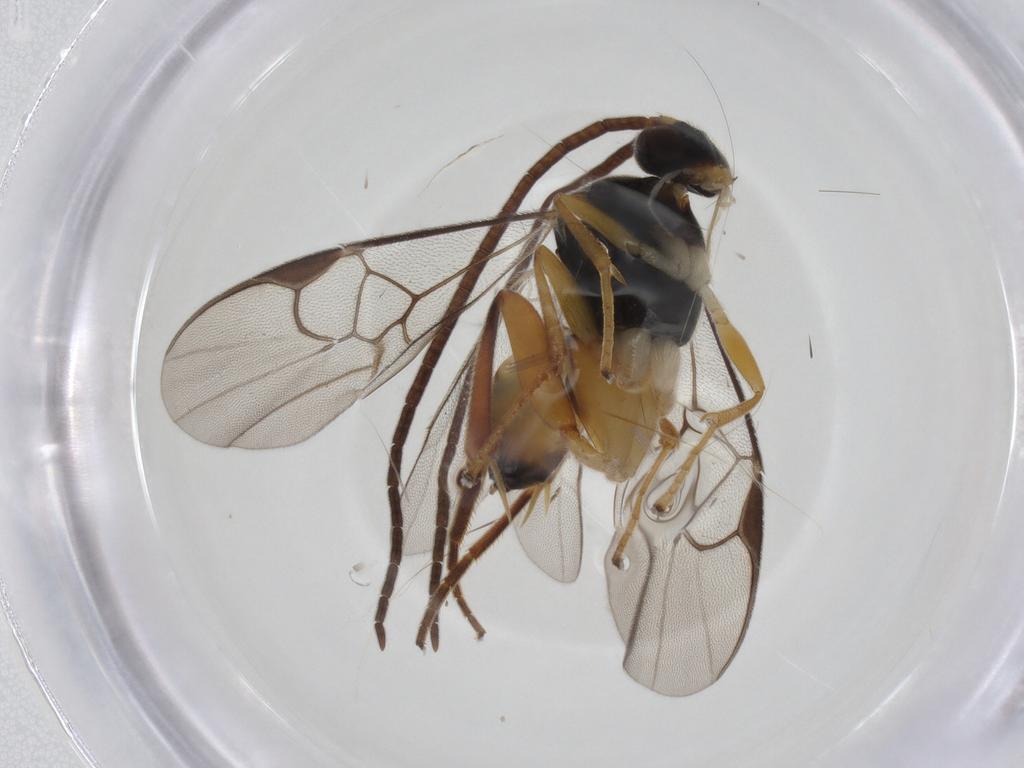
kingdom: Animalia
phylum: Arthropoda
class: Insecta
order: Hymenoptera
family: Braconidae
